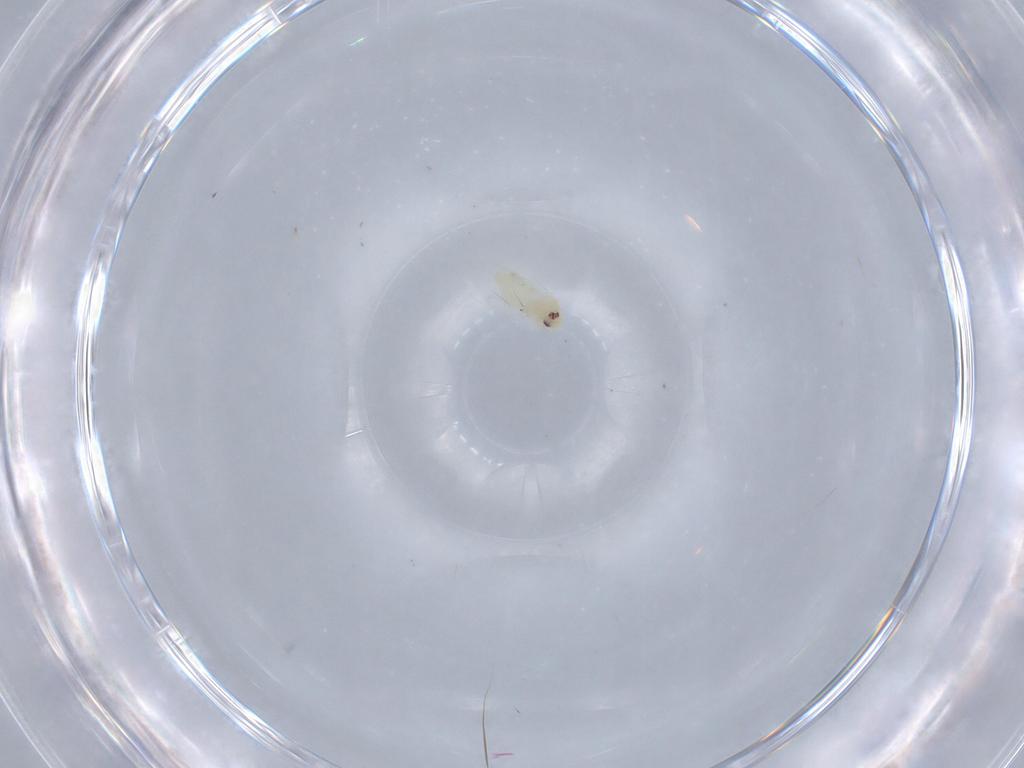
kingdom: Animalia
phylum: Arthropoda
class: Insecta
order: Hemiptera
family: Aleyrodidae
